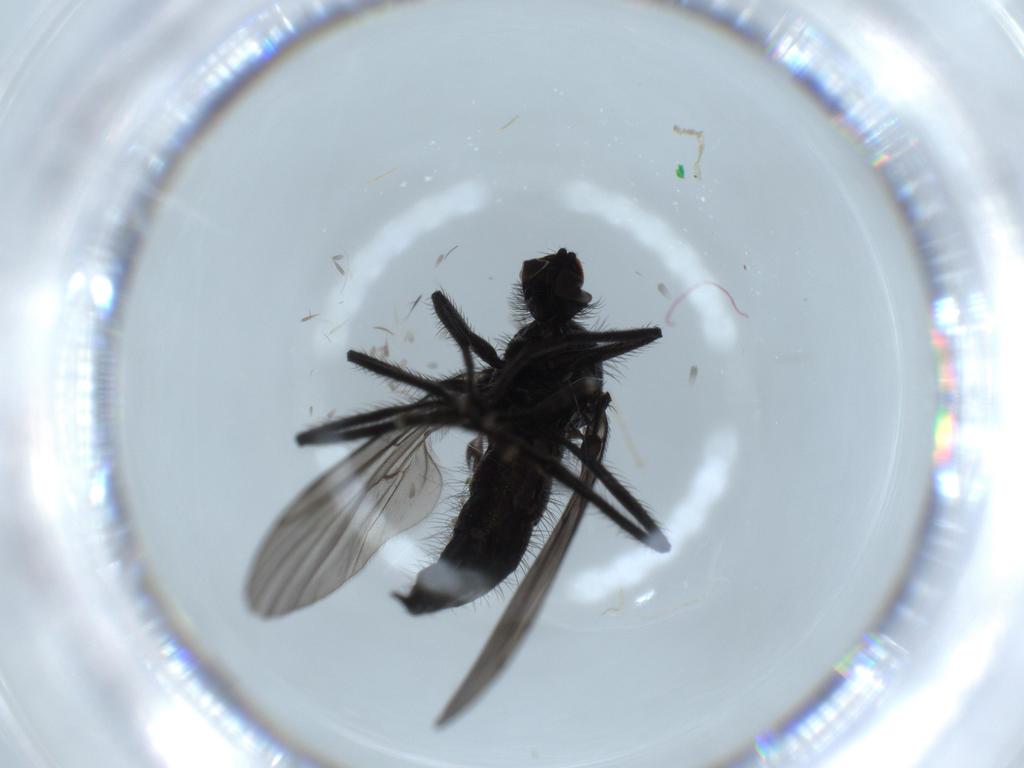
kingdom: Animalia
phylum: Arthropoda
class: Insecta
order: Diptera
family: Hybotidae
